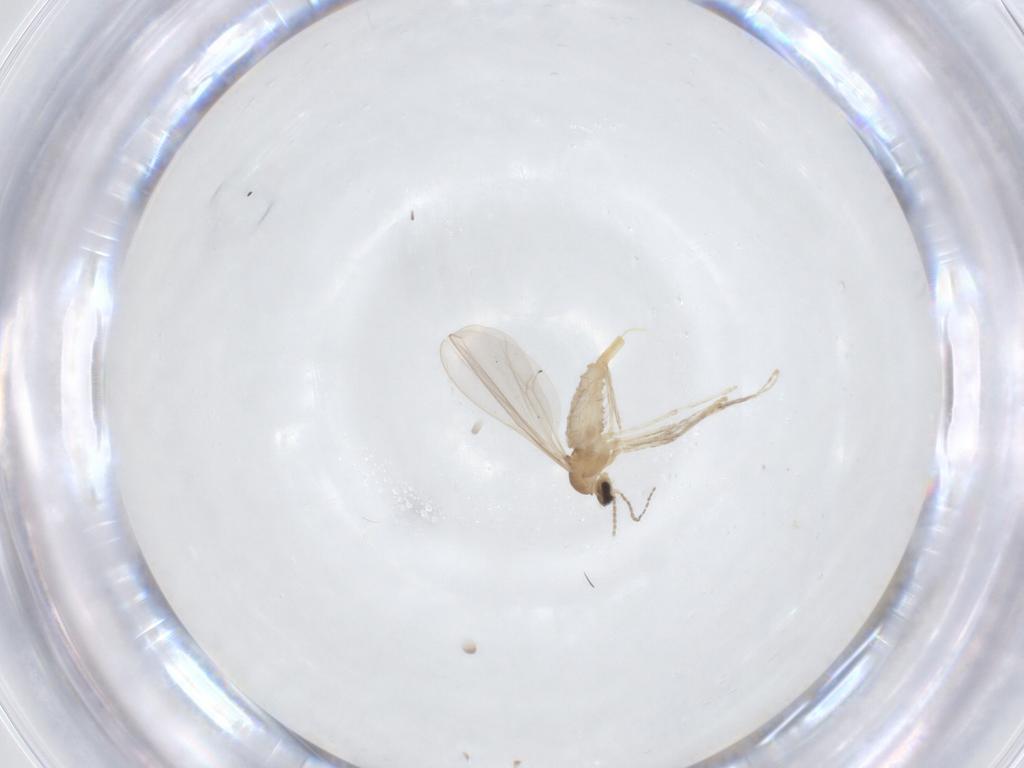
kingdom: Animalia
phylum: Arthropoda
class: Insecta
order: Diptera
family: Cecidomyiidae
